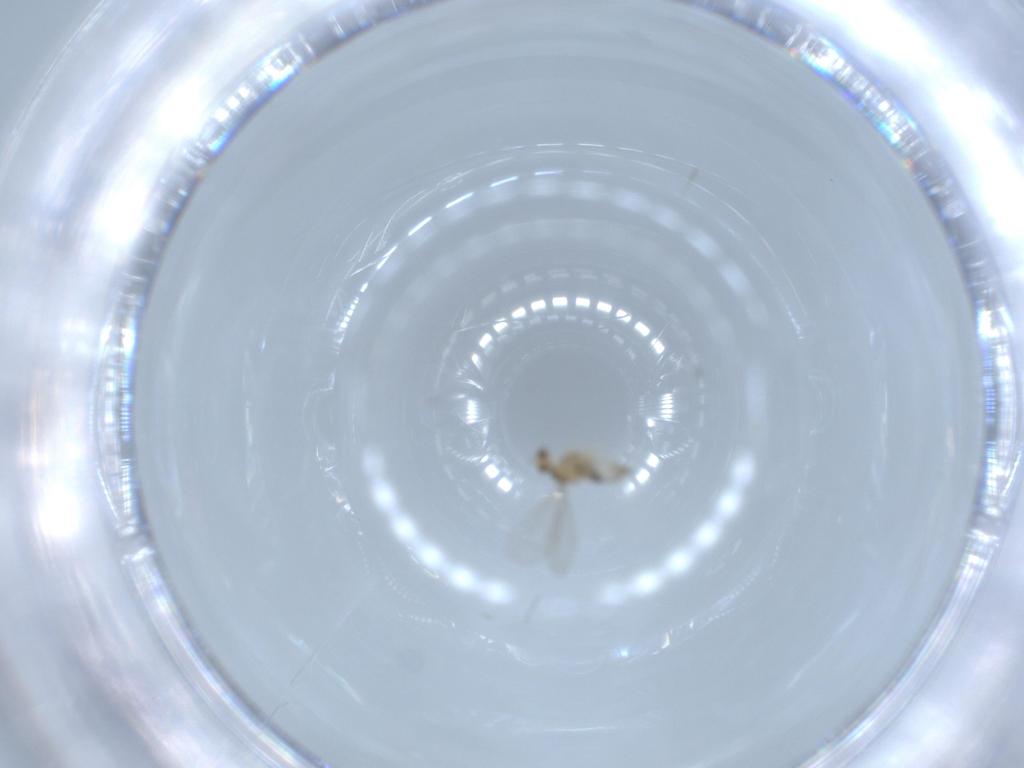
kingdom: Animalia
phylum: Arthropoda
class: Insecta
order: Diptera
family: Cecidomyiidae
